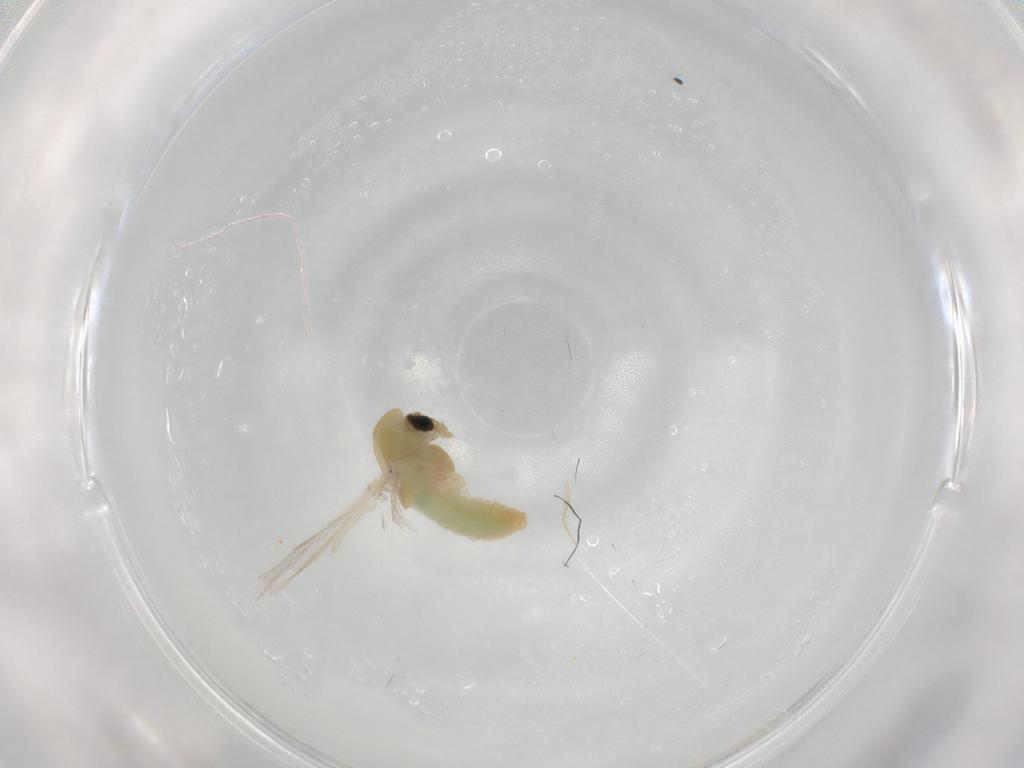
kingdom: Animalia
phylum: Arthropoda
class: Insecta
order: Diptera
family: Chironomidae
